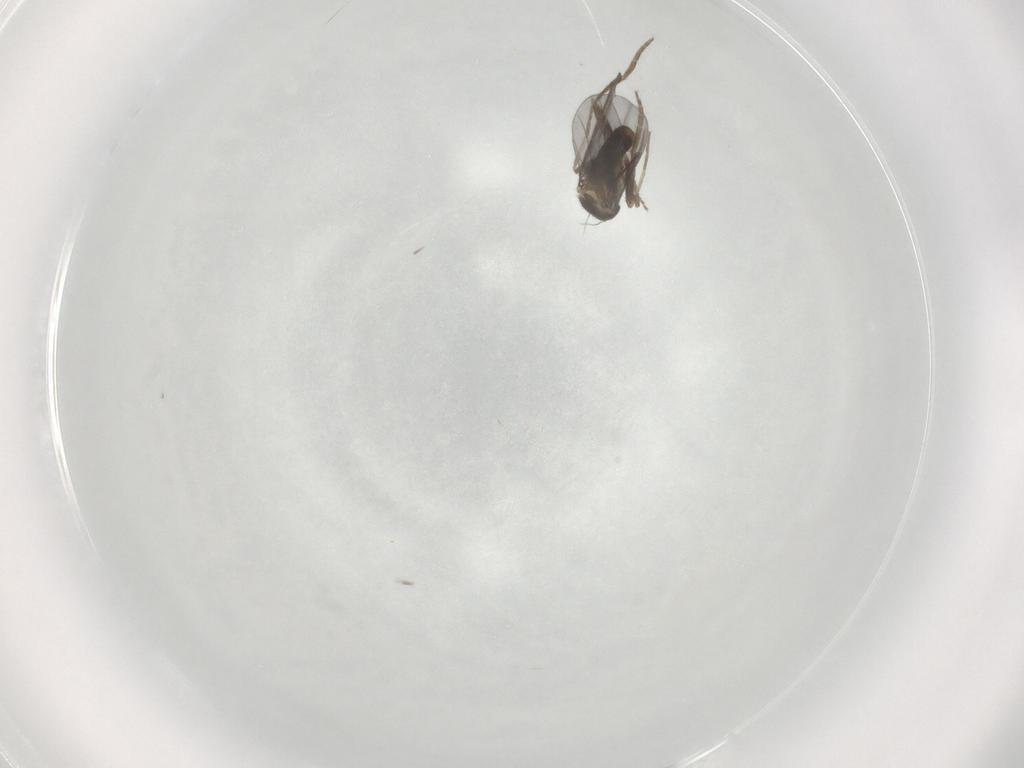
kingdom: Animalia
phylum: Arthropoda
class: Insecta
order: Diptera
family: Phoridae
